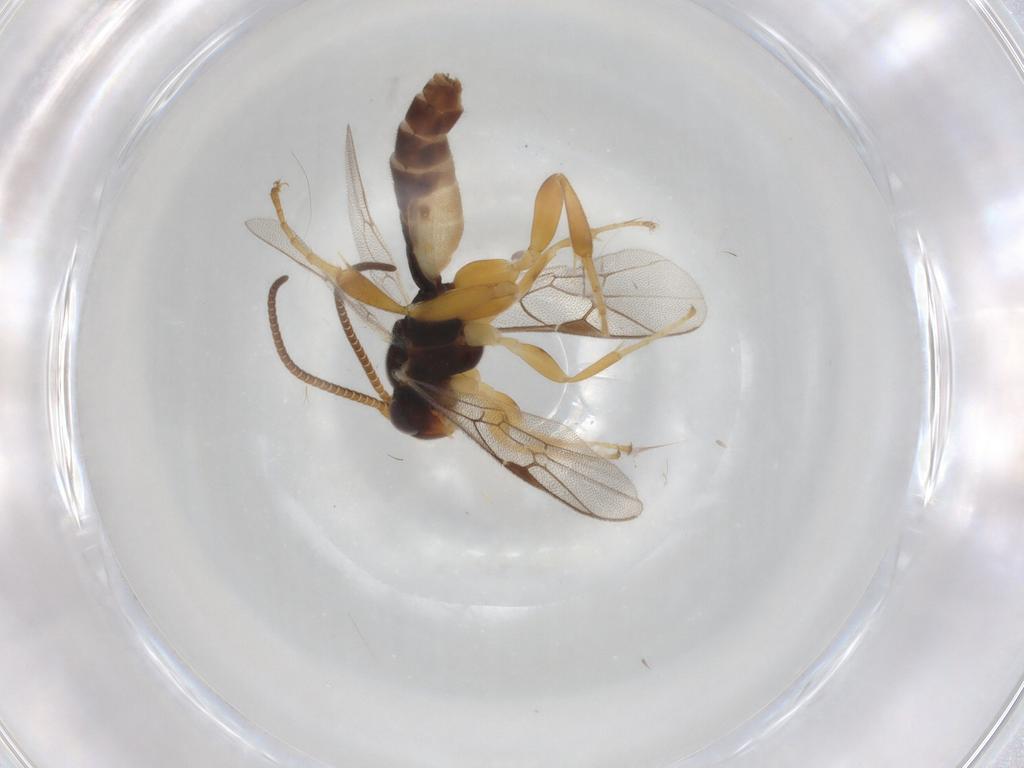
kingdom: Animalia
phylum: Arthropoda
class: Insecta
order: Hymenoptera
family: Ichneumonidae
